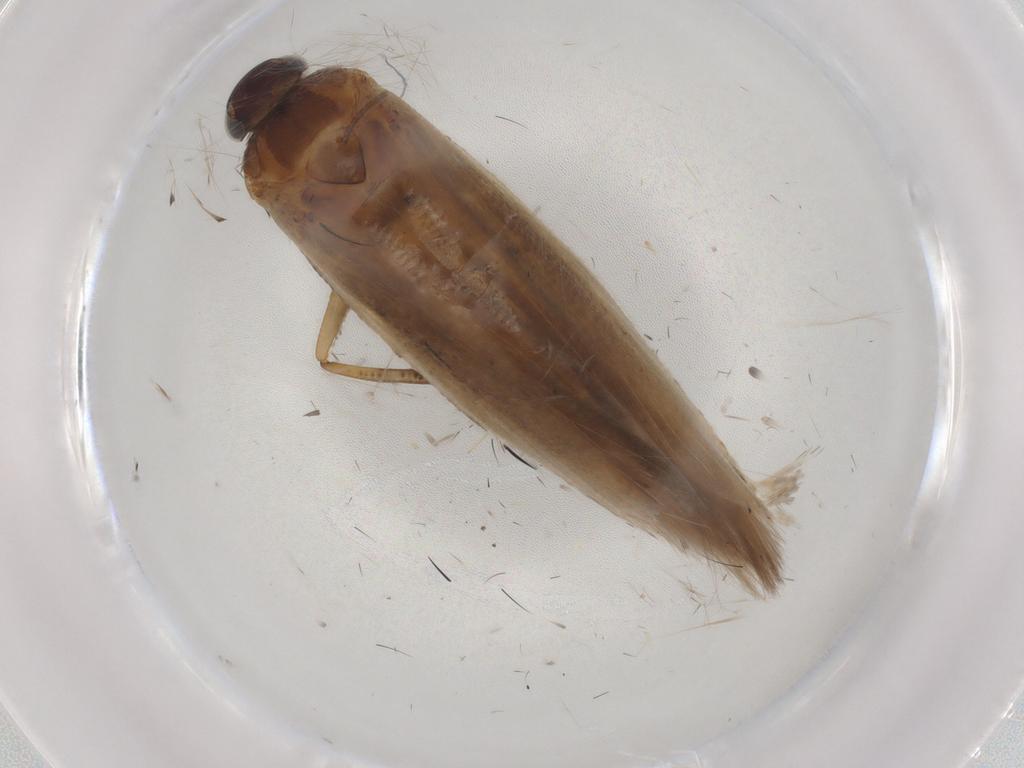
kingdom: Animalia
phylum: Arthropoda
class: Insecta
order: Lepidoptera
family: Gelechiidae
